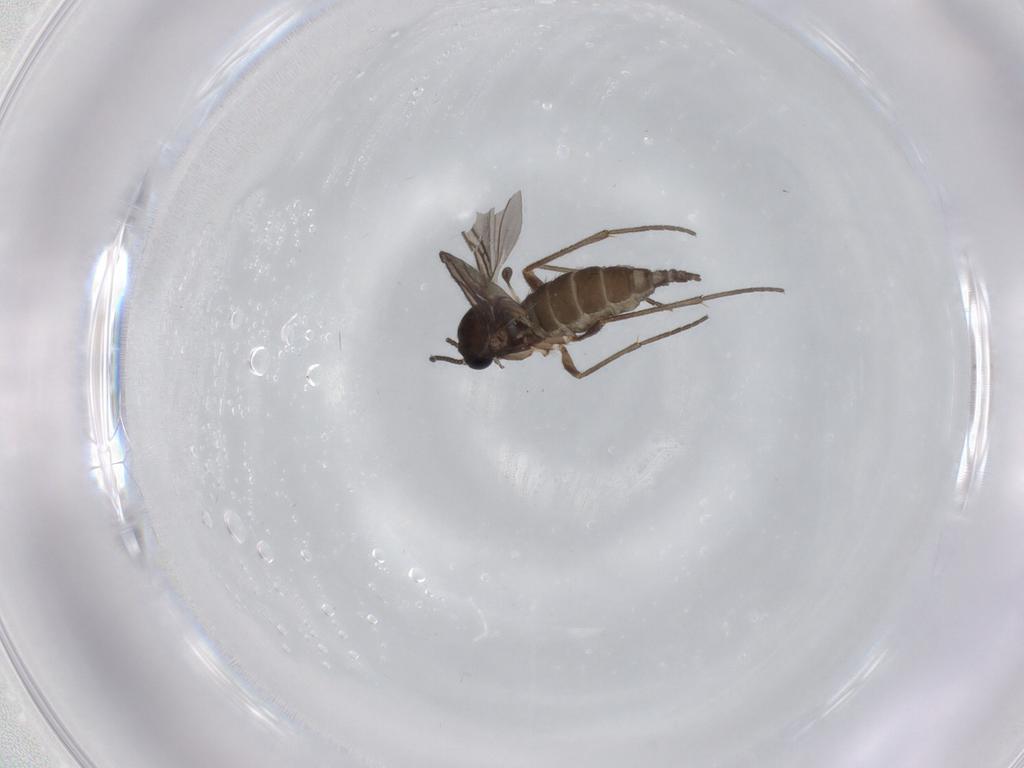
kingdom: Animalia
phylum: Arthropoda
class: Insecta
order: Diptera
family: Sciaridae
